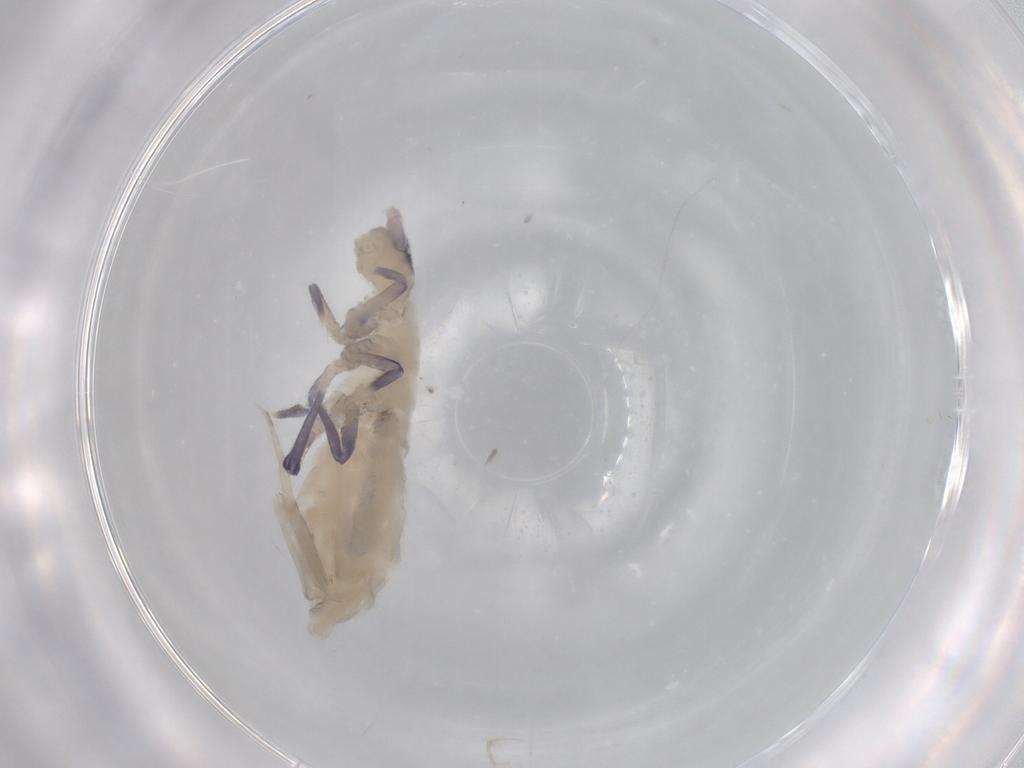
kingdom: Animalia
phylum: Arthropoda
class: Collembola
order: Entomobryomorpha
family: Tomoceridae
